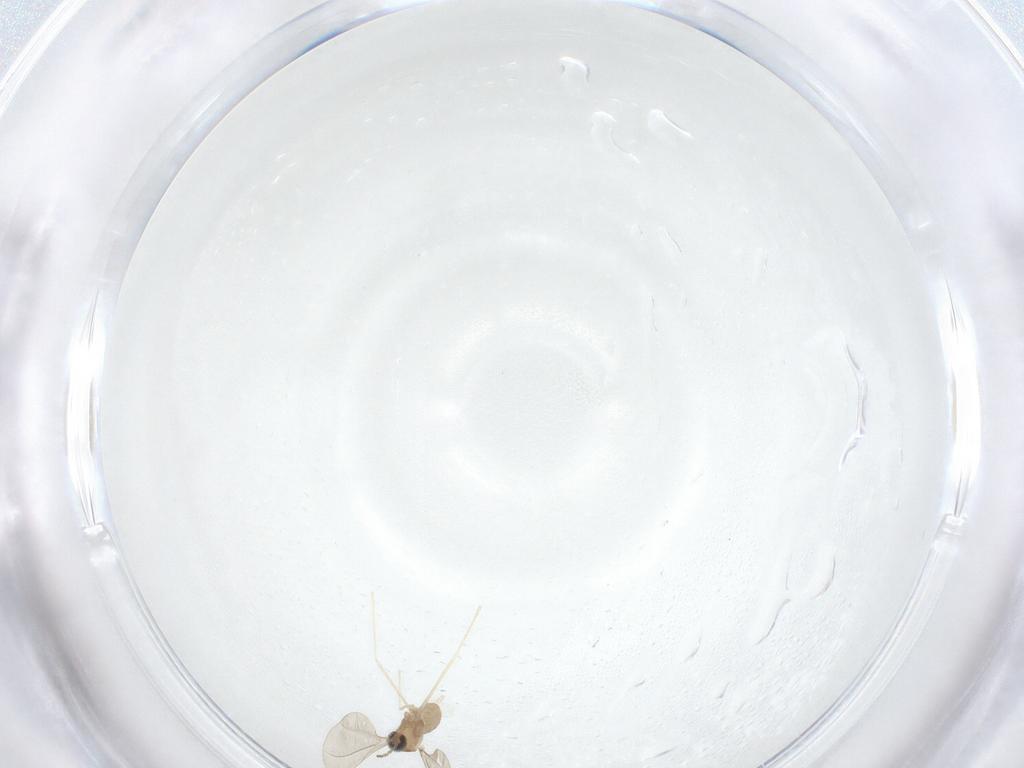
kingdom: Animalia
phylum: Arthropoda
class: Insecta
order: Diptera
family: Cecidomyiidae
